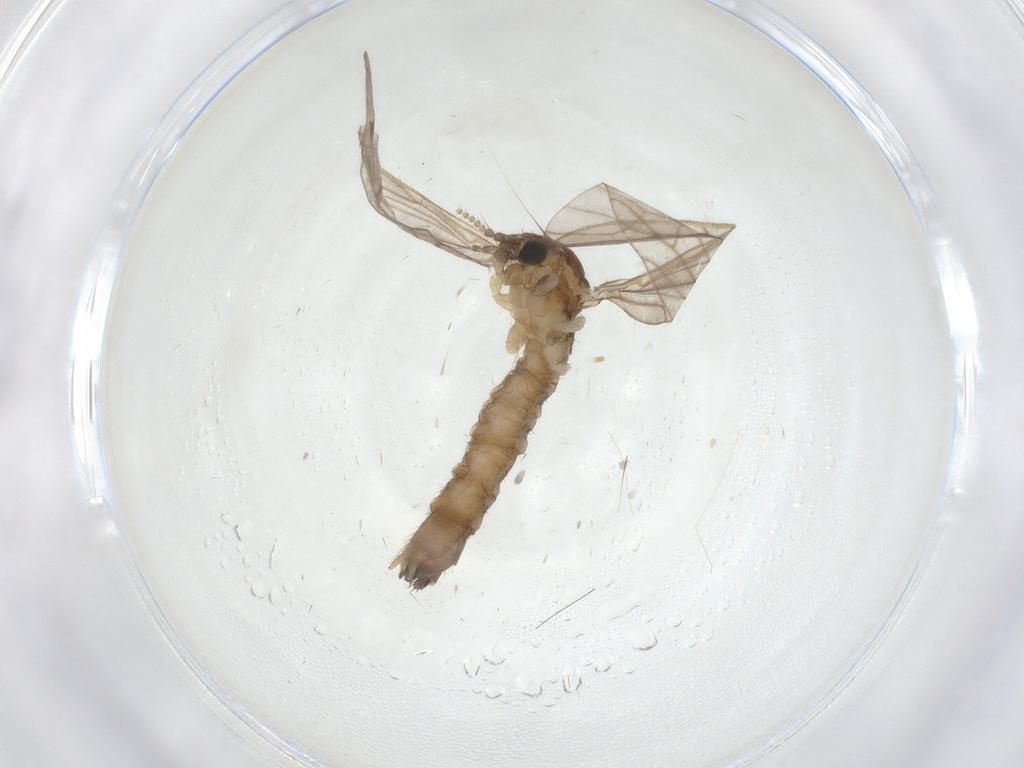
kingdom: Animalia
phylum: Arthropoda
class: Insecta
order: Diptera
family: Limoniidae
